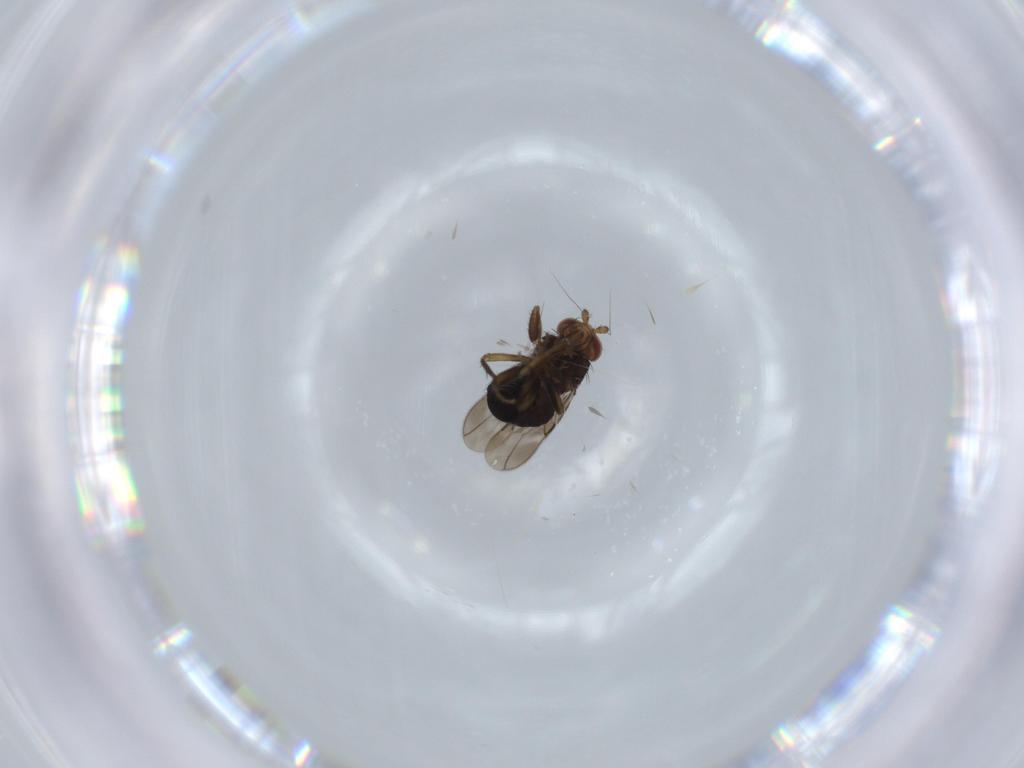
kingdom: Animalia
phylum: Arthropoda
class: Insecta
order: Diptera
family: Sphaeroceridae
